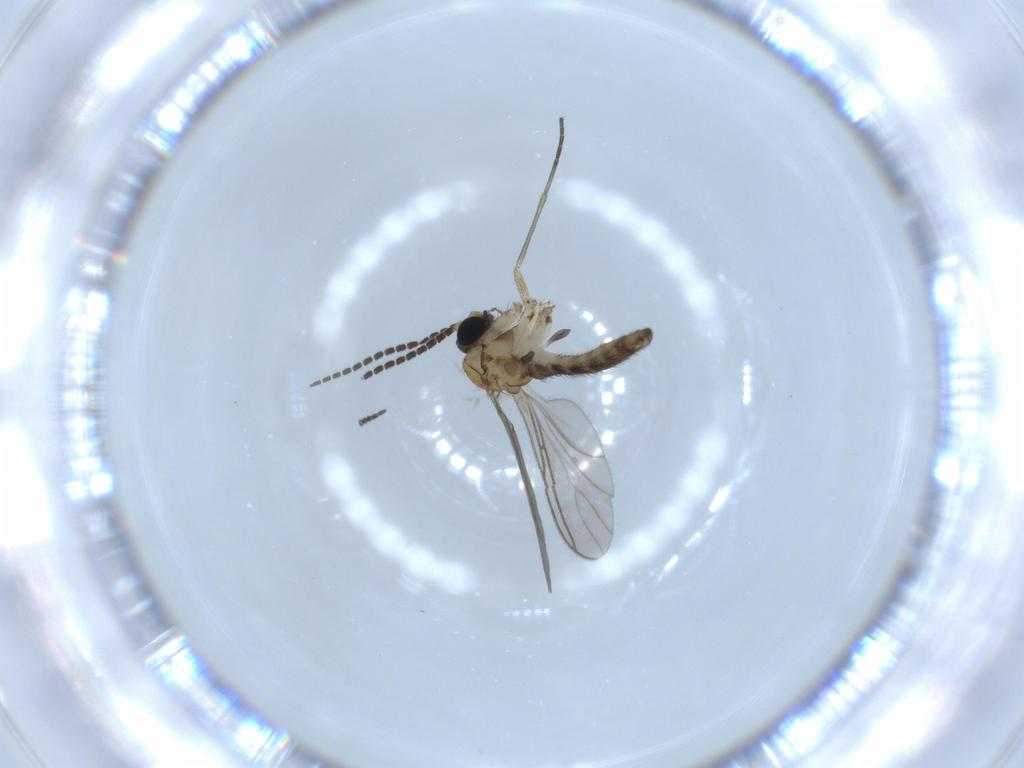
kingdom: Animalia
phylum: Arthropoda
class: Insecta
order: Diptera
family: Sciaridae
